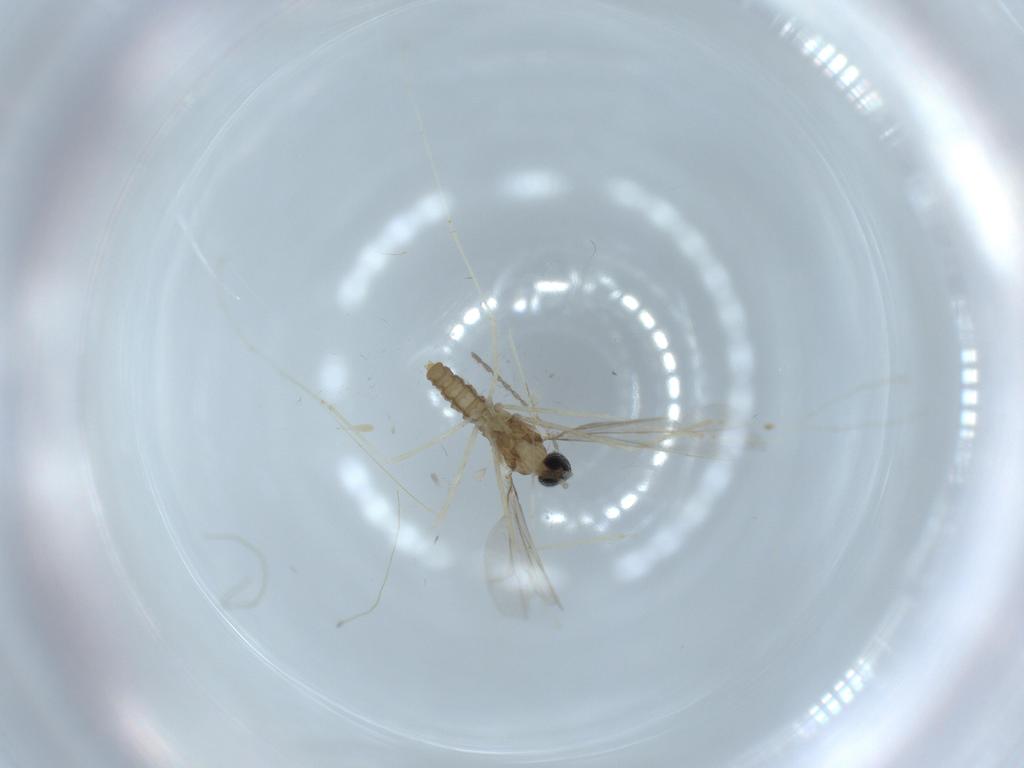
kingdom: Animalia
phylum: Arthropoda
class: Insecta
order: Diptera
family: Cecidomyiidae
